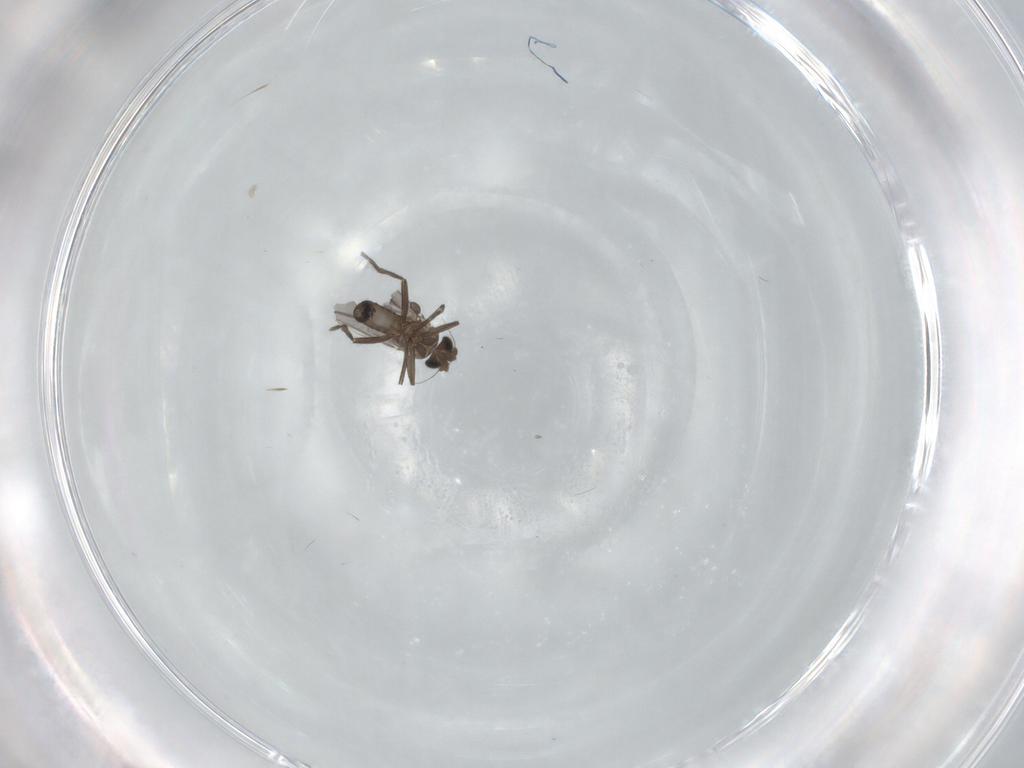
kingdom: Animalia
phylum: Arthropoda
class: Insecta
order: Diptera
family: Phoridae
